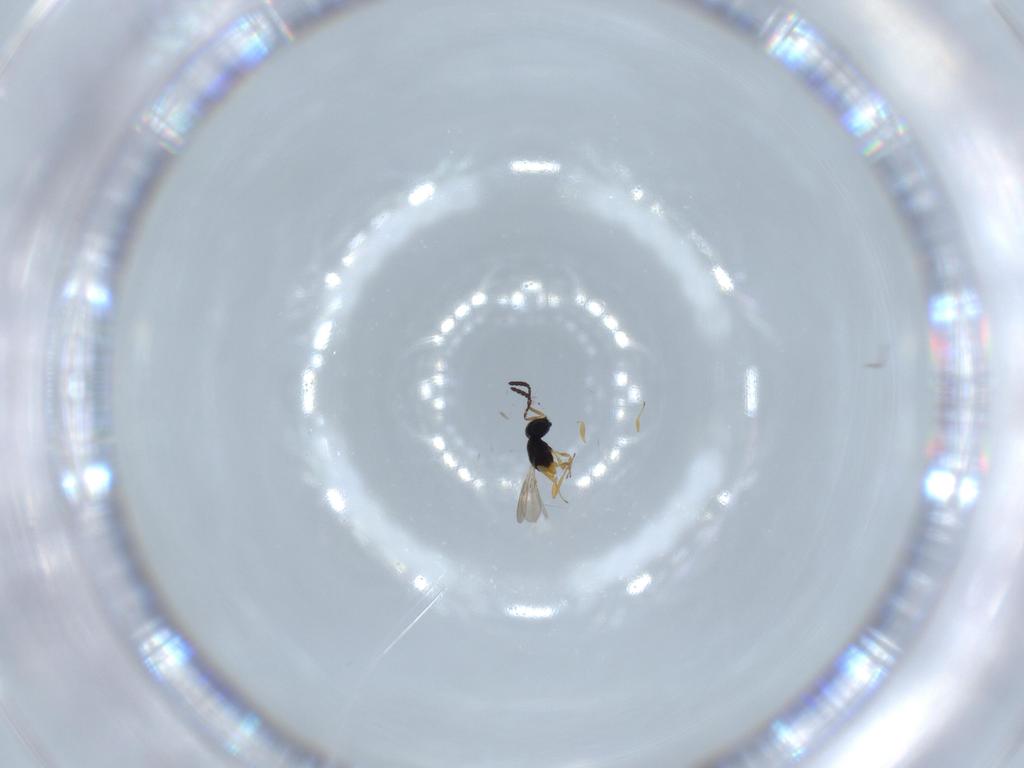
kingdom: Animalia
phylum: Arthropoda
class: Insecta
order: Hymenoptera
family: Scelionidae
